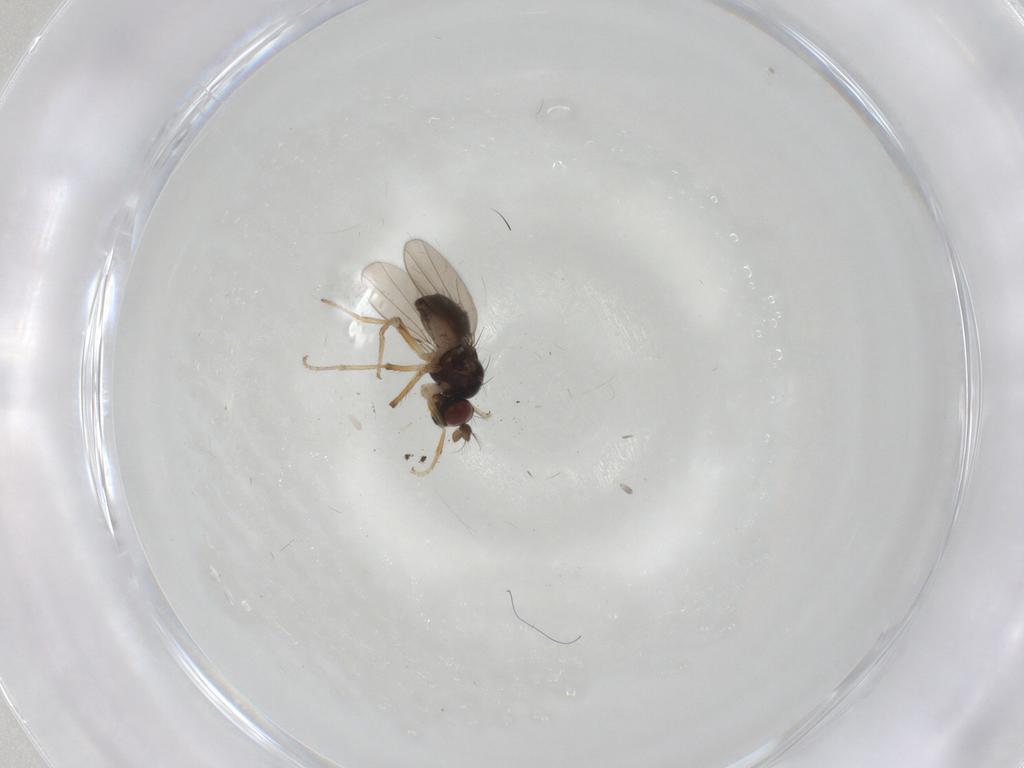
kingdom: Animalia
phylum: Arthropoda
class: Insecta
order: Diptera
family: Ephydridae
